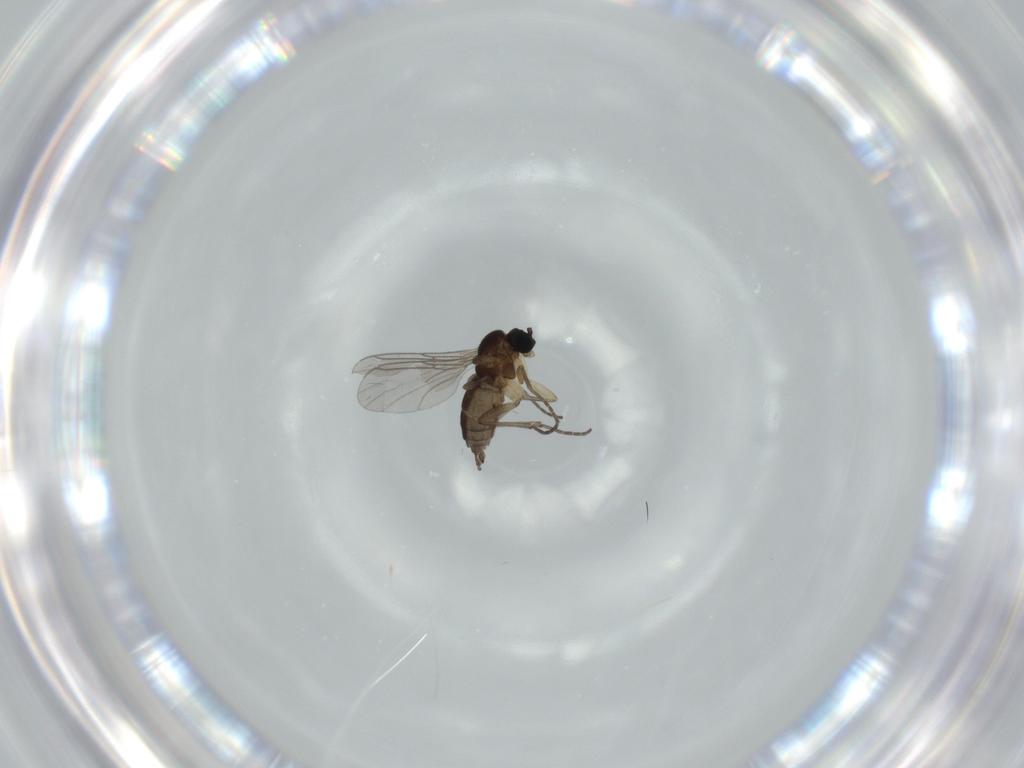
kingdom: Animalia
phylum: Arthropoda
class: Insecta
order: Diptera
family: Sciaridae
